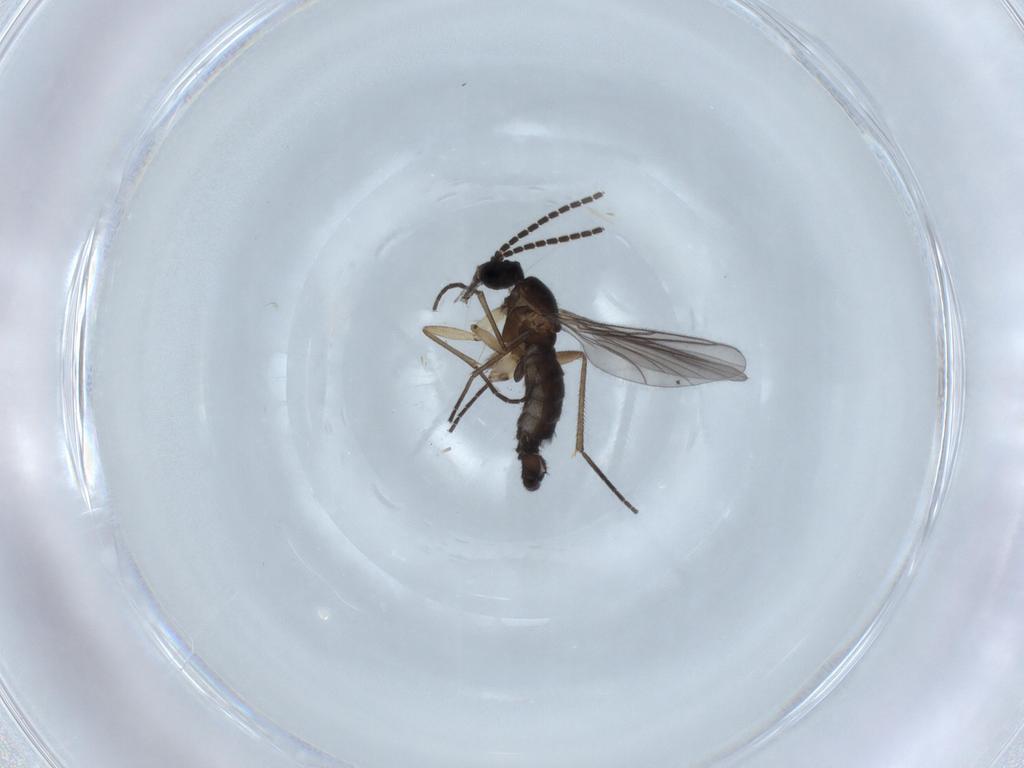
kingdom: Animalia
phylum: Arthropoda
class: Insecta
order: Diptera
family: Sciaridae
